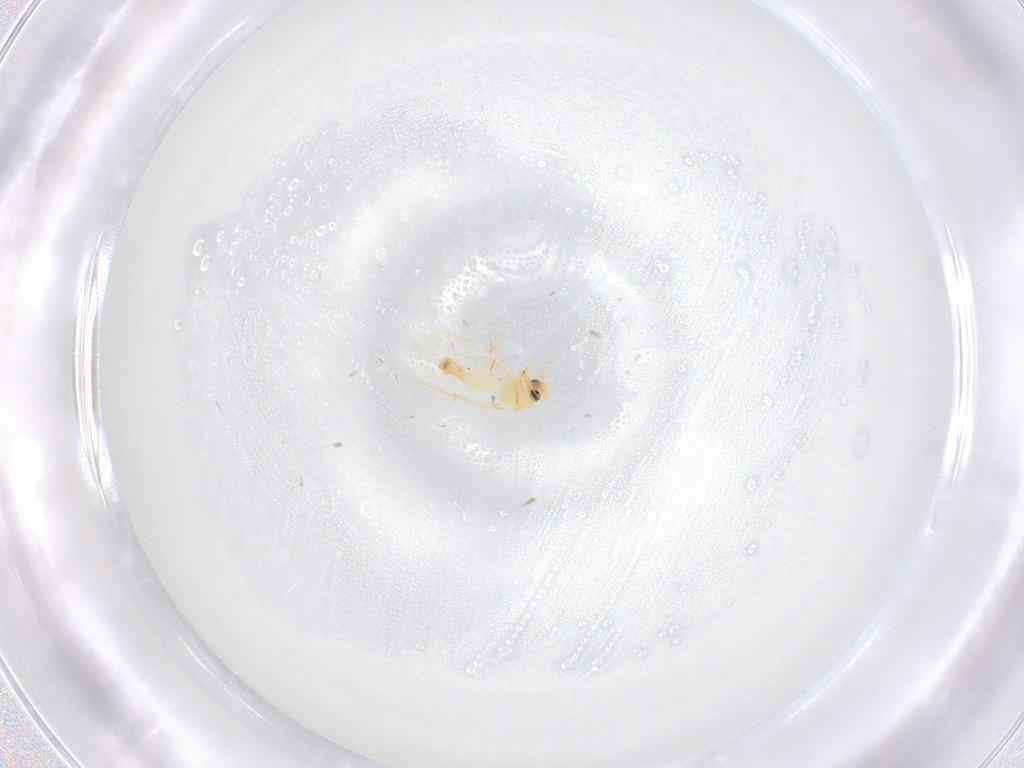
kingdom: Animalia
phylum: Arthropoda
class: Insecta
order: Hemiptera
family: Aleyrodidae
